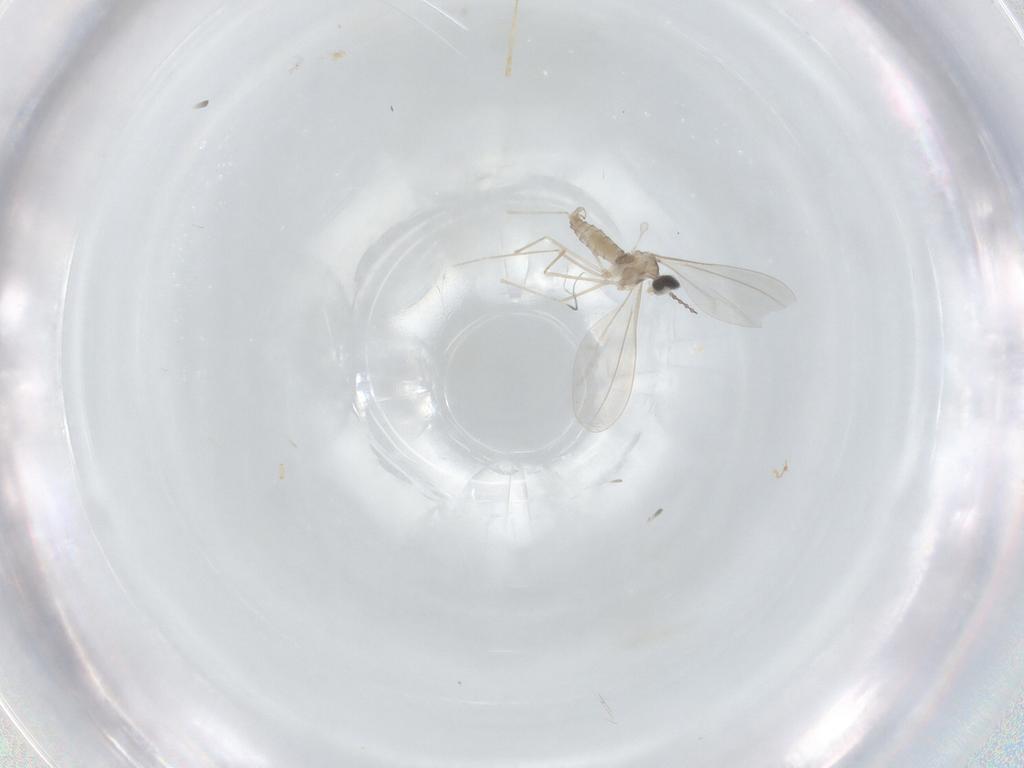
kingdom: Animalia
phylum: Arthropoda
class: Insecta
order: Diptera
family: Cecidomyiidae
